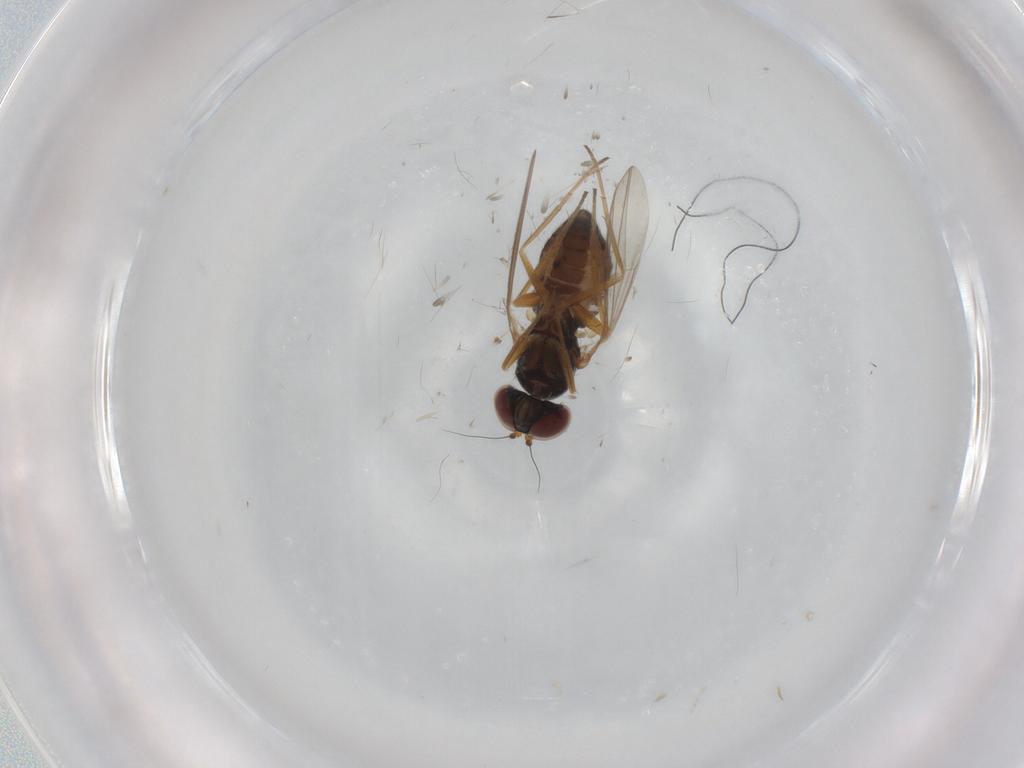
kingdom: Animalia
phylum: Arthropoda
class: Insecta
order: Diptera
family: Dolichopodidae
